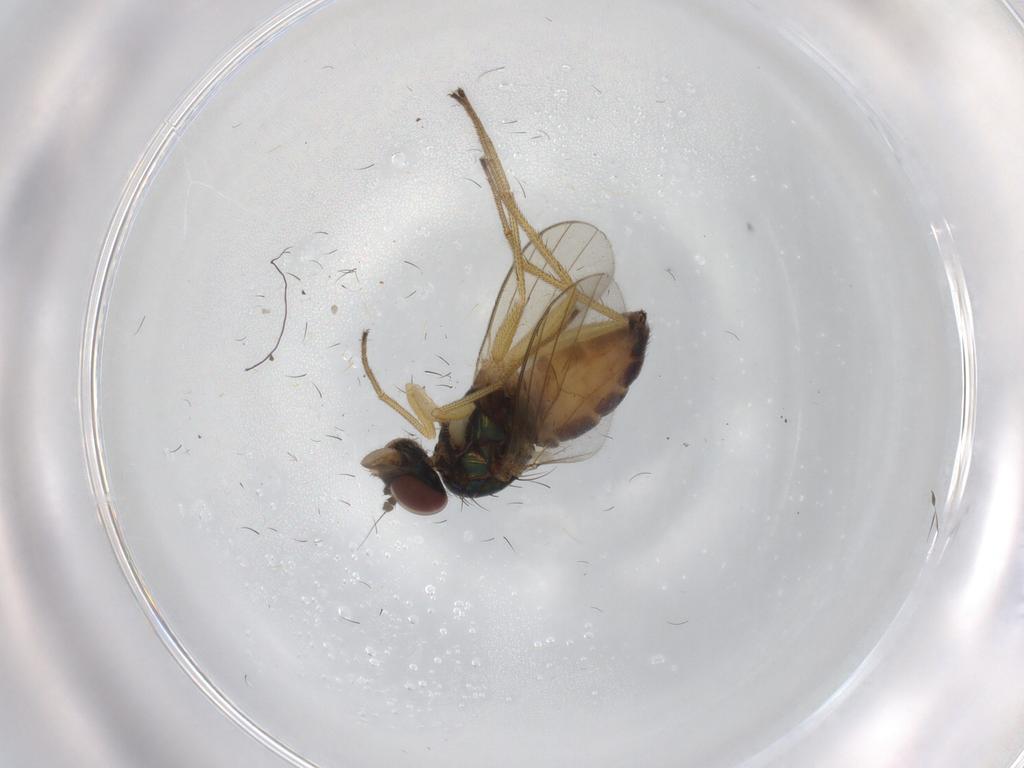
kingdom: Animalia
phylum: Arthropoda
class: Insecta
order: Diptera
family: Dolichopodidae
